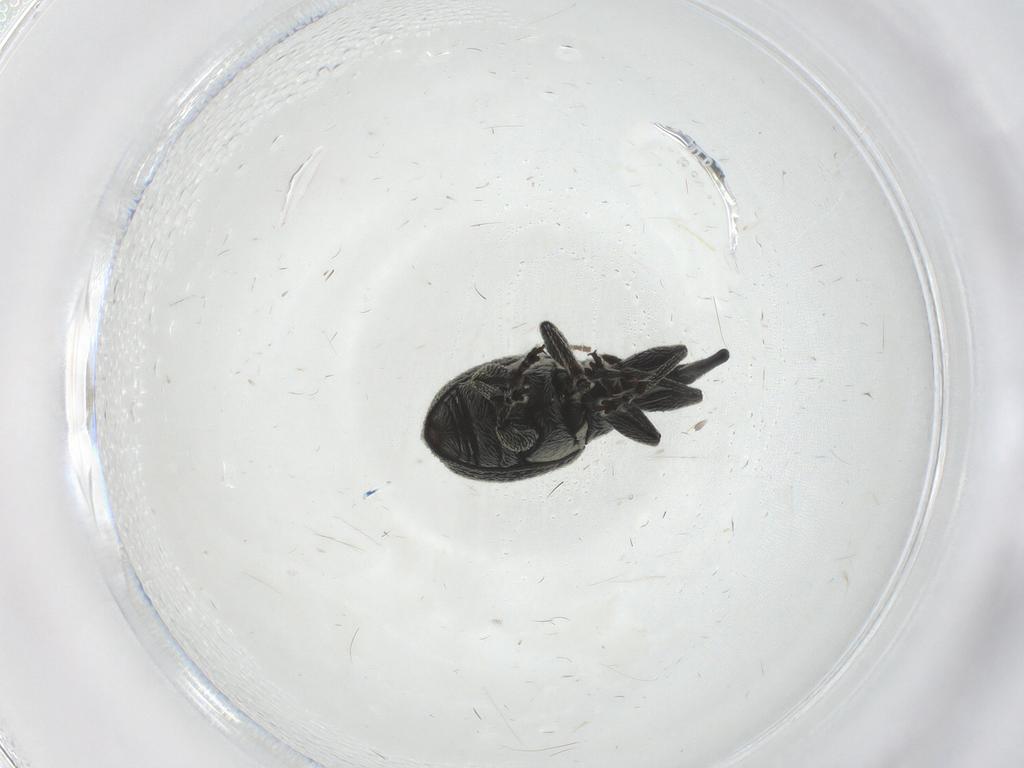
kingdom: Animalia
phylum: Arthropoda
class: Insecta
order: Coleoptera
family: Brentidae
